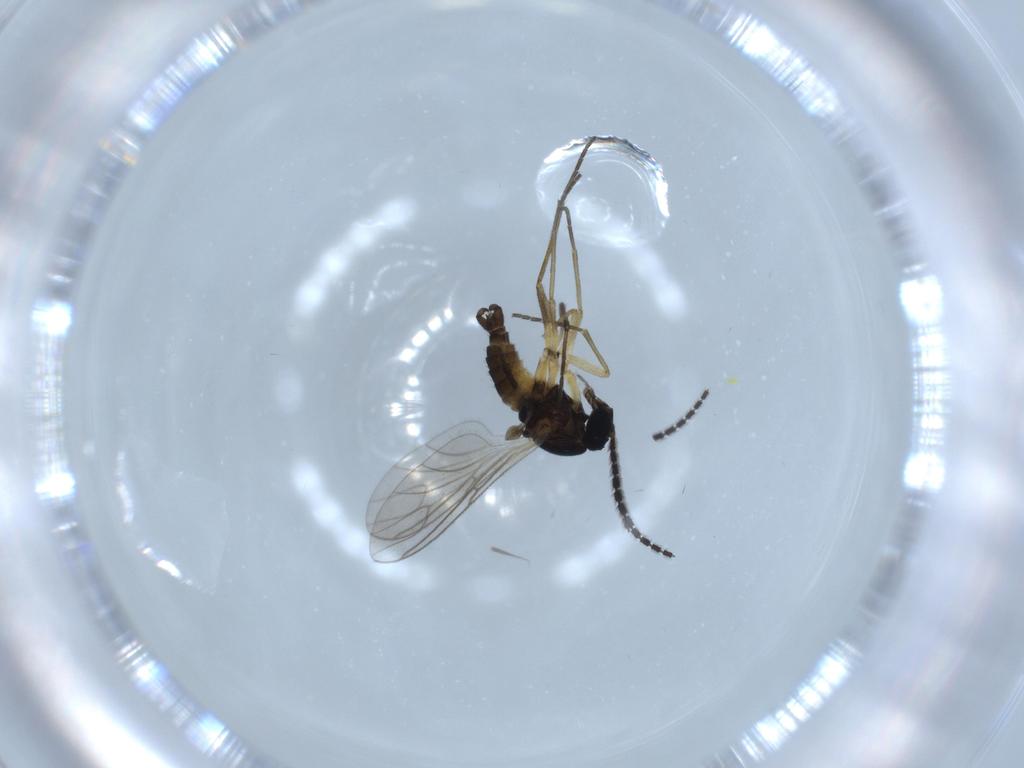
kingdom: Animalia
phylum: Arthropoda
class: Insecta
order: Diptera
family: Sciaridae
